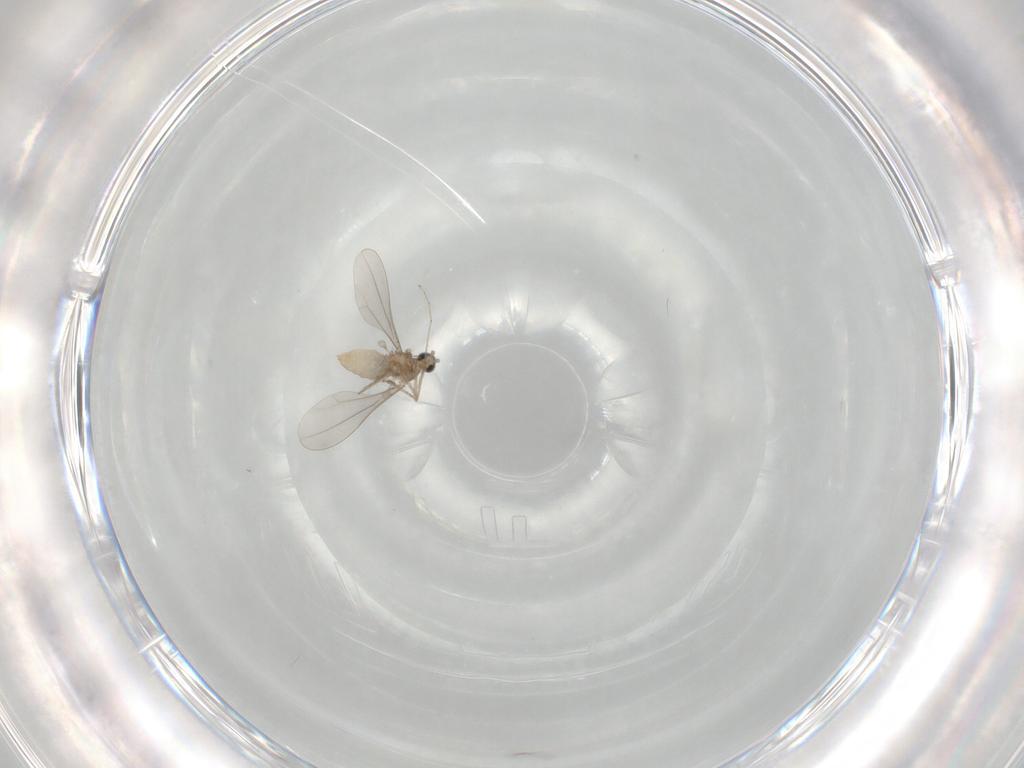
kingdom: Animalia
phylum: Arthropoda
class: Insecta
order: Diptera
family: Cecidomyiidae
